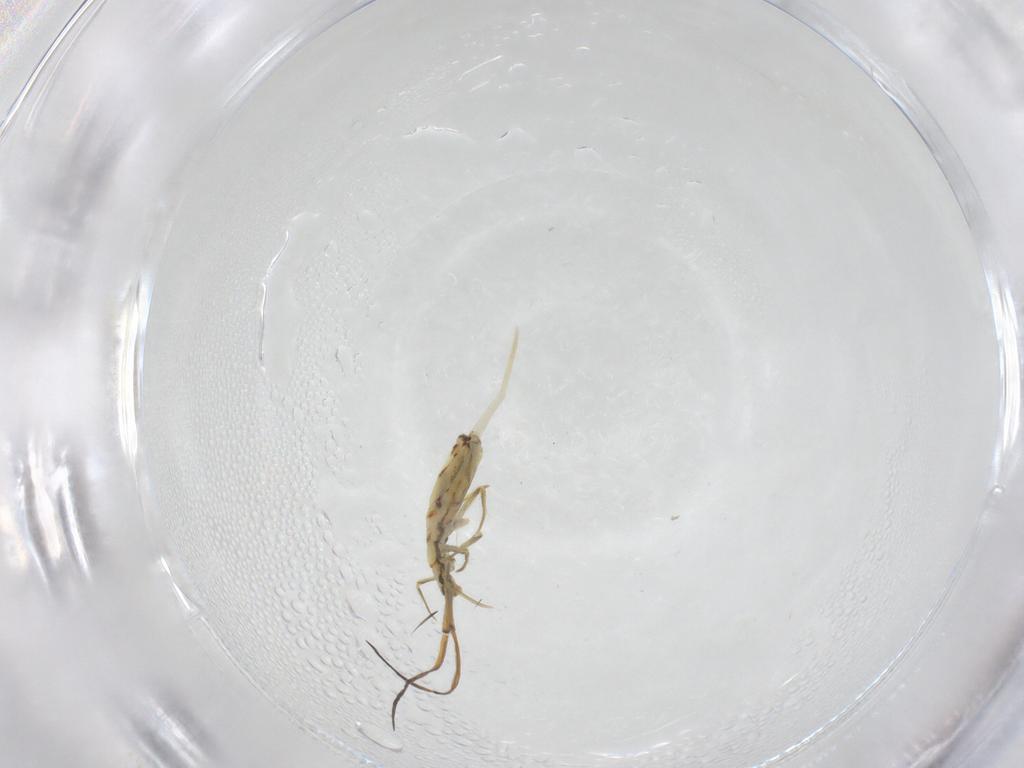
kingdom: Animalia
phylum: Arthropoda
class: Insecta
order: Diptera
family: Ceratopogonidae
